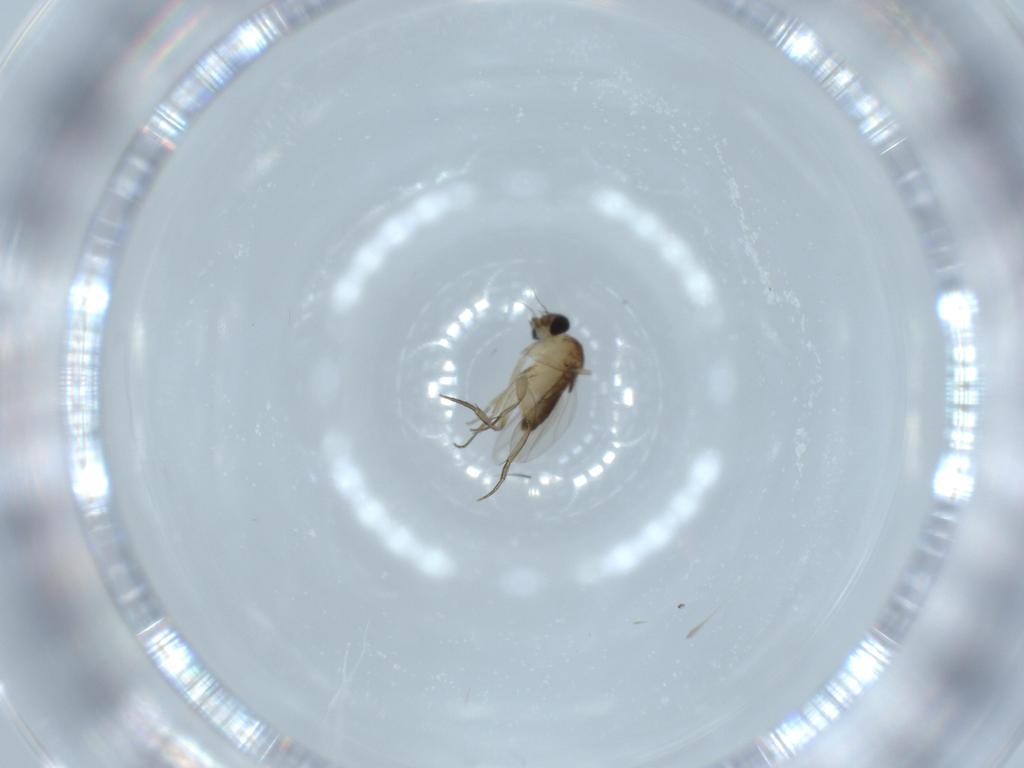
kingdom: Animalia
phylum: Arthropoda
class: Insecta
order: Diptera
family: Phoridae
